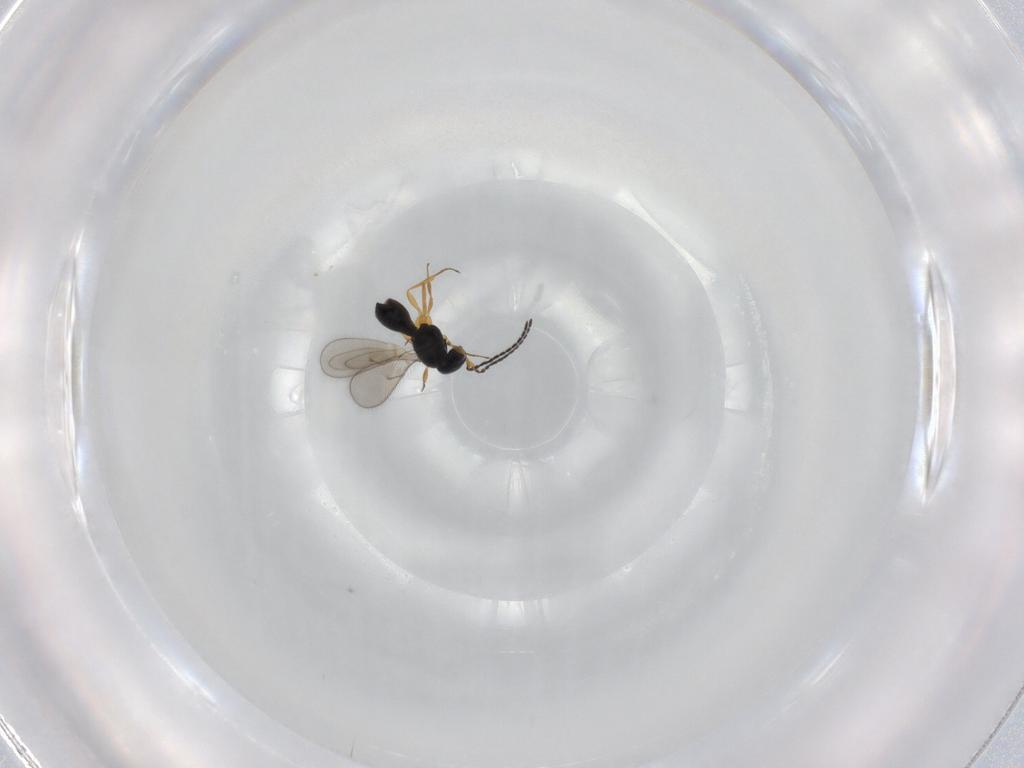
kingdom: Animalia
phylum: Arthropoda
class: Insecta
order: Hymenoptera
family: Scelionidae
